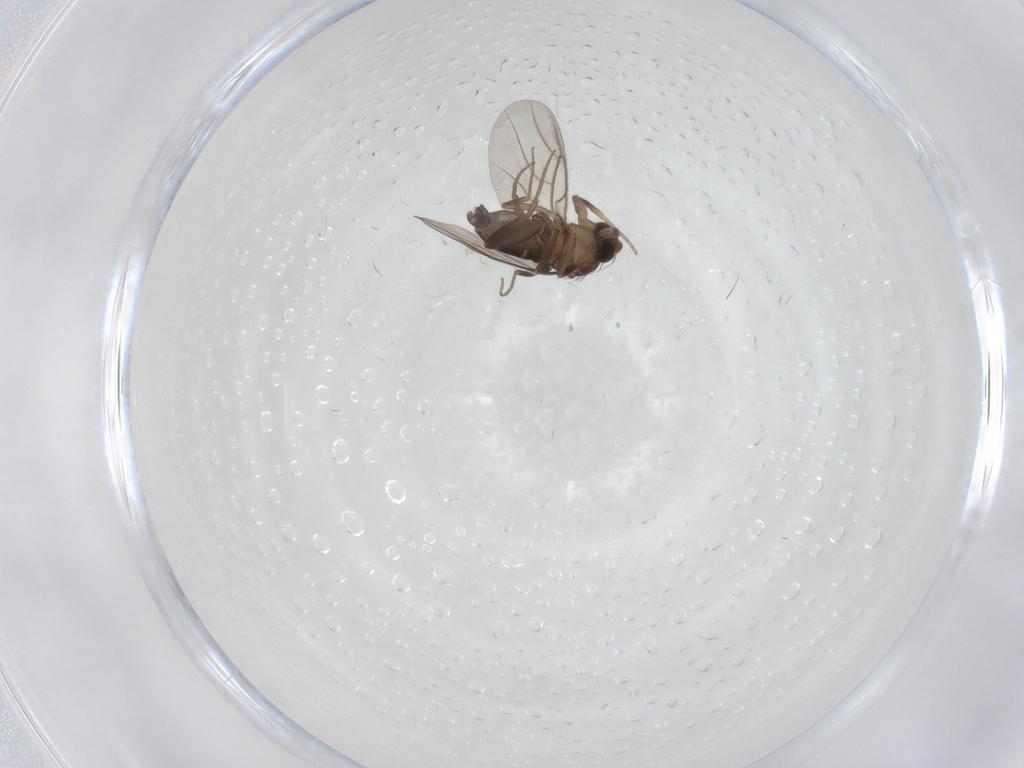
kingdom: Animalia
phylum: Arthropoda
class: Insecta
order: Diptera
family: Phoridae
